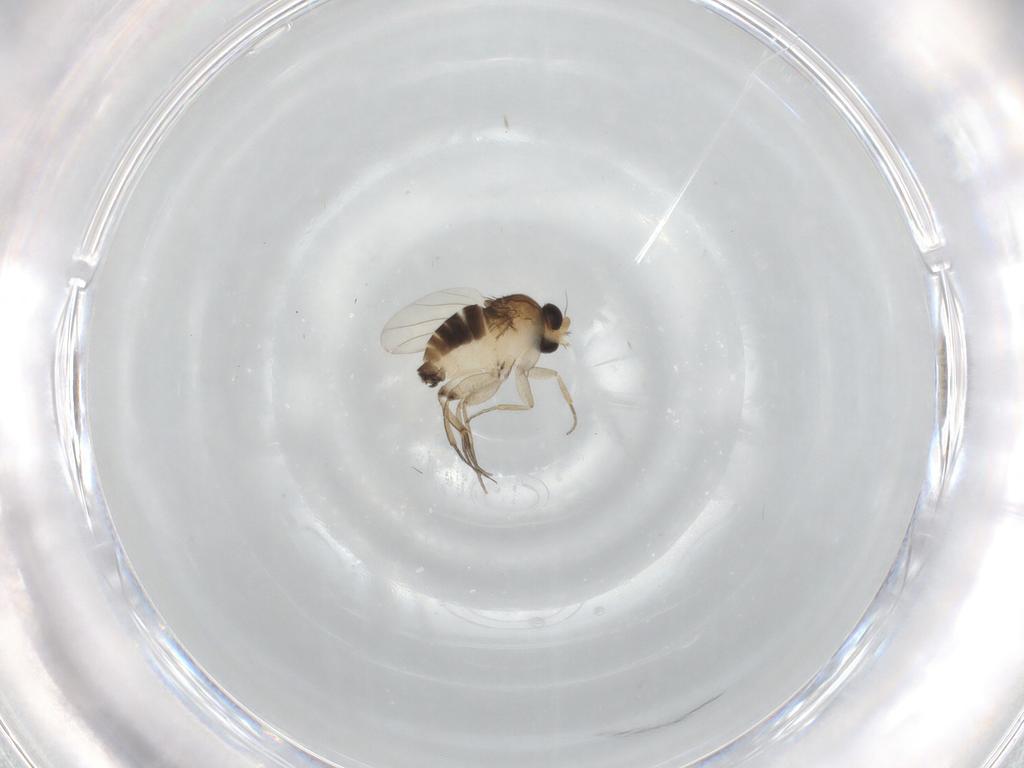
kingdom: Animalia
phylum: Arthropoda
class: Insecta
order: Diptera
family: Phoridae
